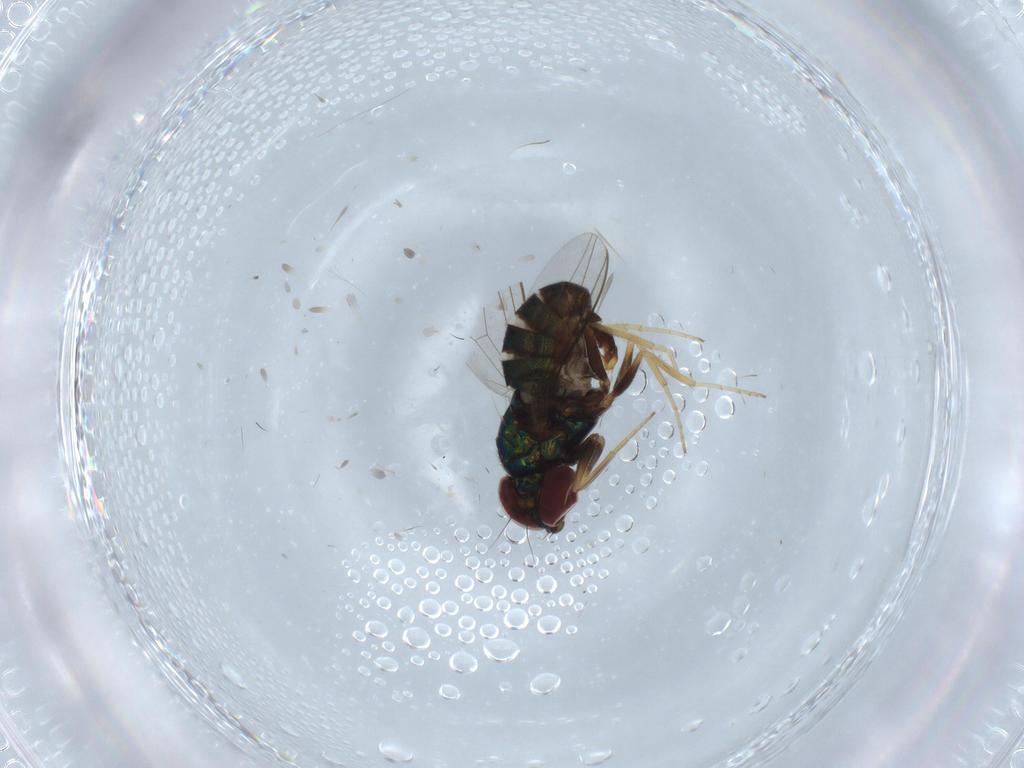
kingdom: Animalia
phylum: Arthropoda
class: Insecta
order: Diptera
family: Dolichopodidae
